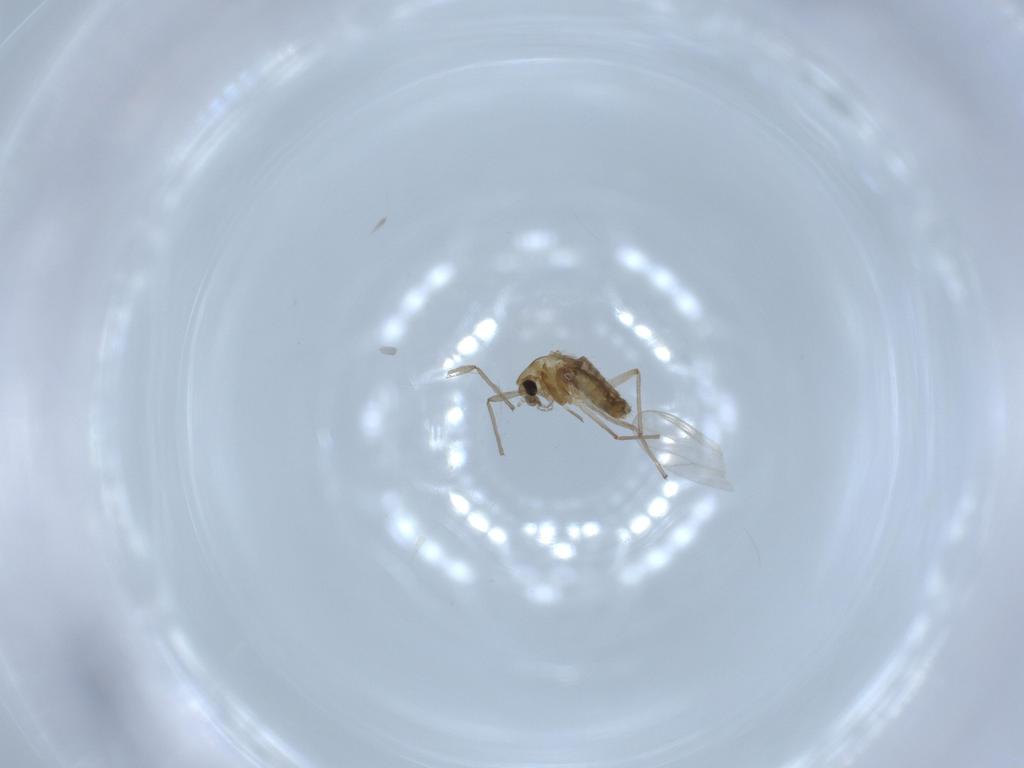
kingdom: Animalia
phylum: Arthropoda
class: Insecta
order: Diptera
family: Chironomidae
